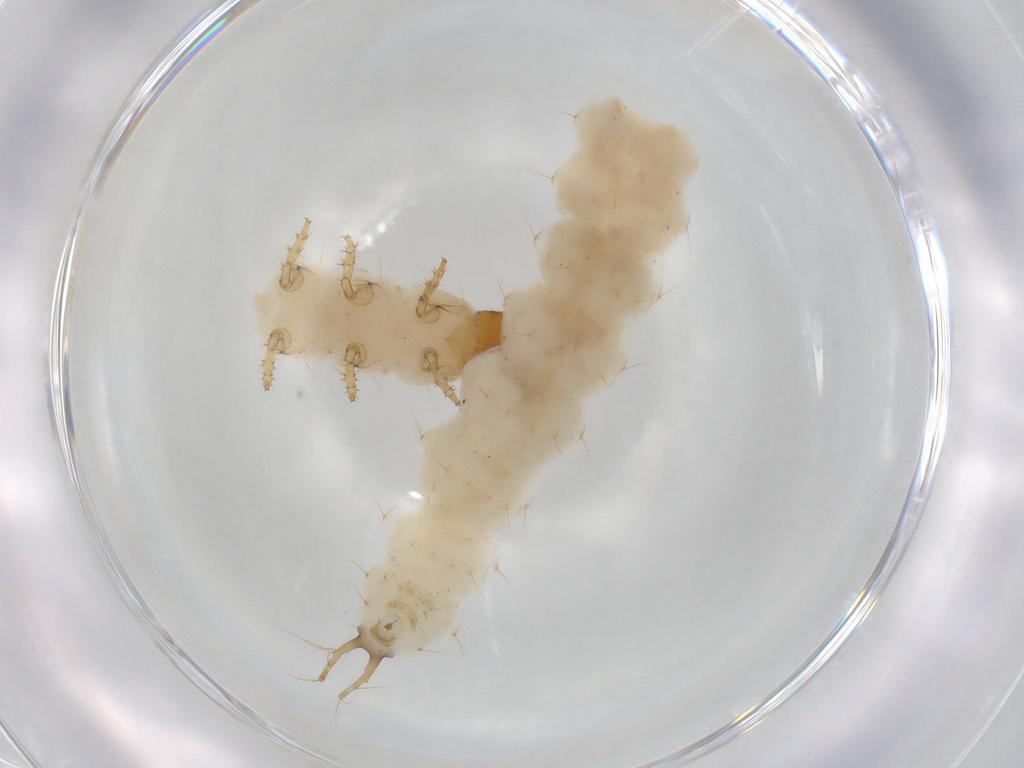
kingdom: Animalia
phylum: Arthropoda
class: Insecta
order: Coleoptera
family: Carabidae
